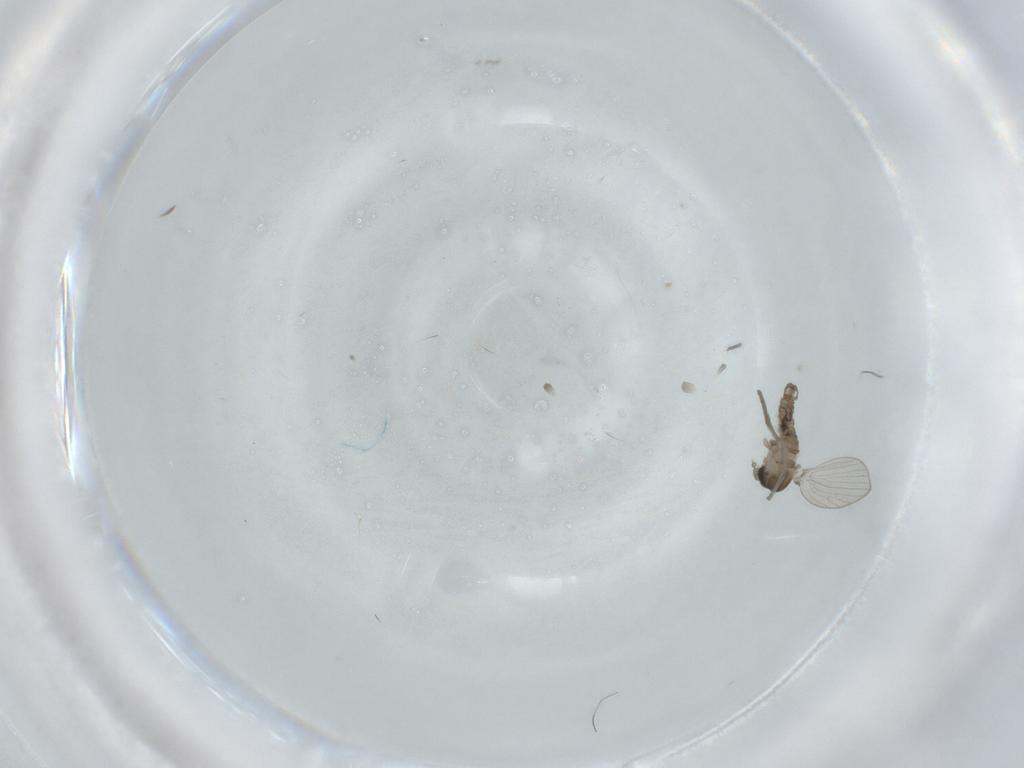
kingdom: Animalia
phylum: Arthropoda
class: Insecta
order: Diptera
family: Psychodidae
